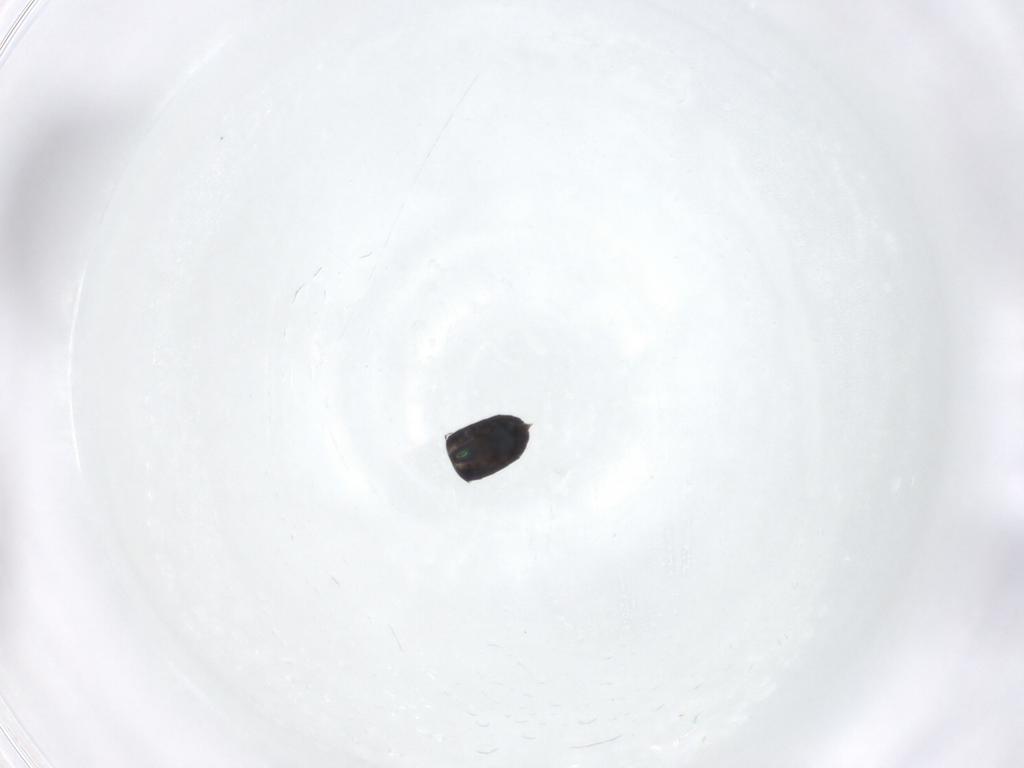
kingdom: Animalia
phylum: Arthropoda
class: Insecta
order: Hymenoptera
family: Eulophidae
